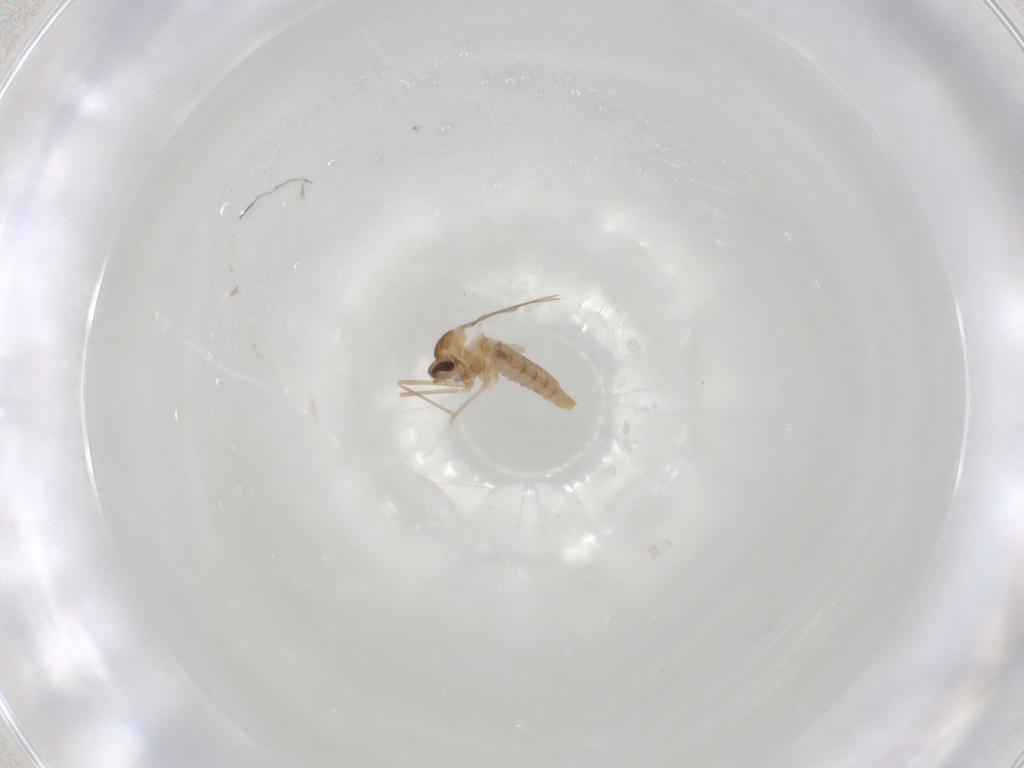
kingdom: Animalia
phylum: Arthropoda
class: Insecta
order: Diptera
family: Cecidomyiidae
